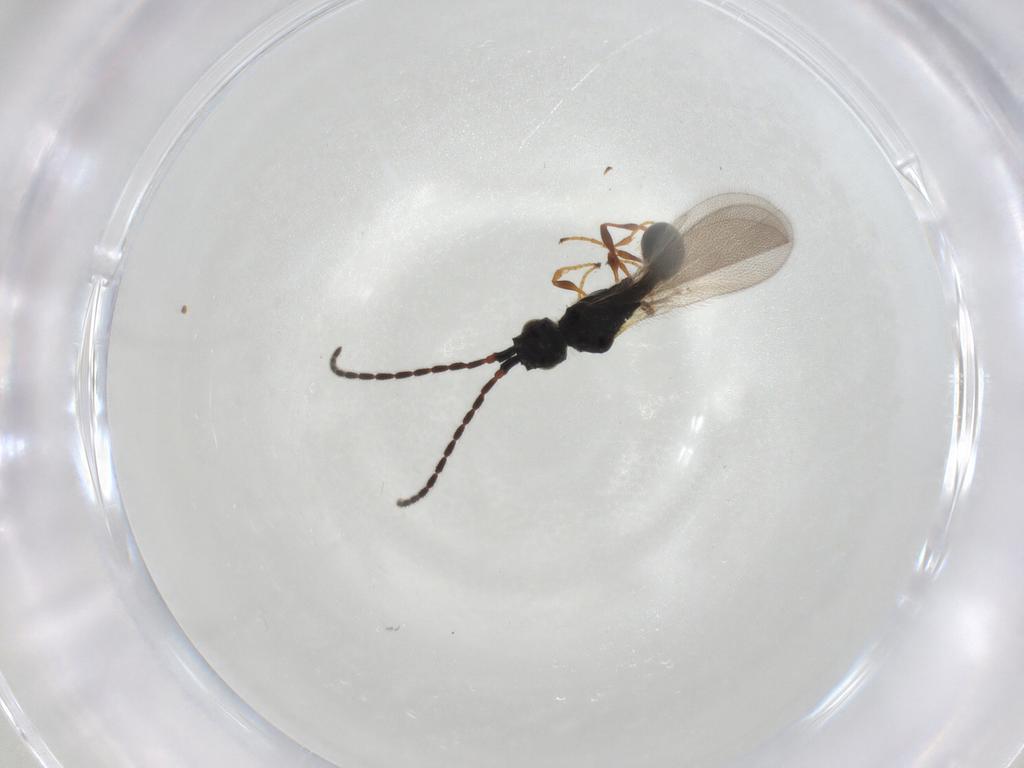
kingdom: Animalia
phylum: Arthropoda
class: Insecta
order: Hymenoptera
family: Diapriidae
